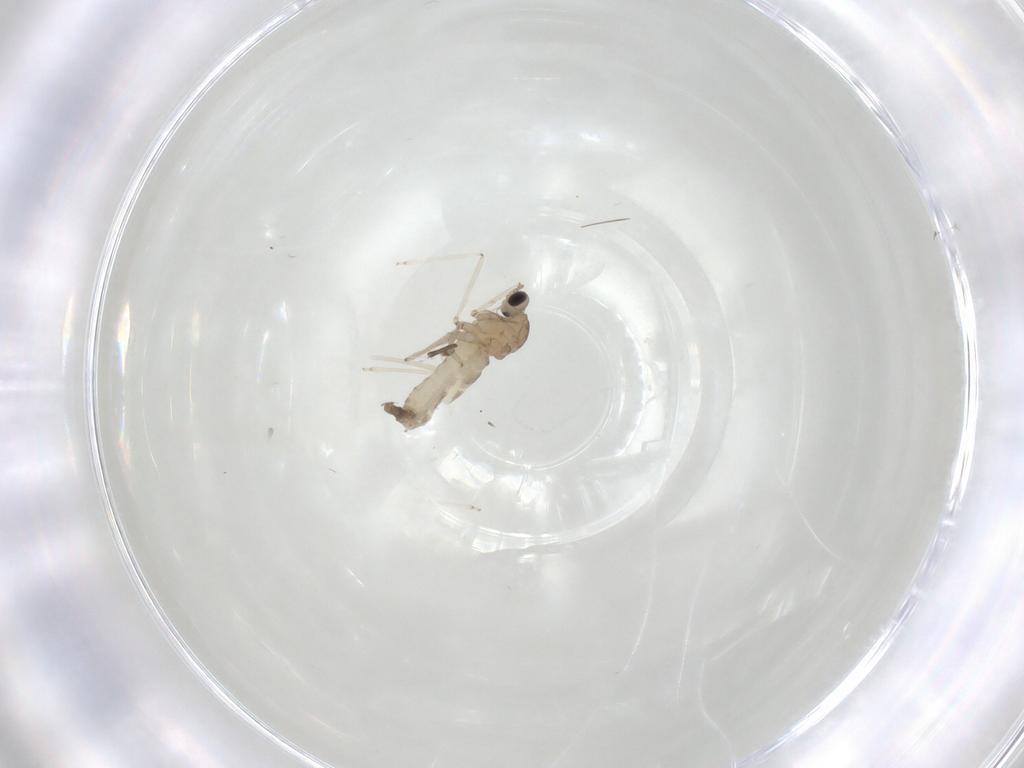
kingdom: Animalia
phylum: Arthropoda
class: Insecta
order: Diptera
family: Cecidomyiidae
